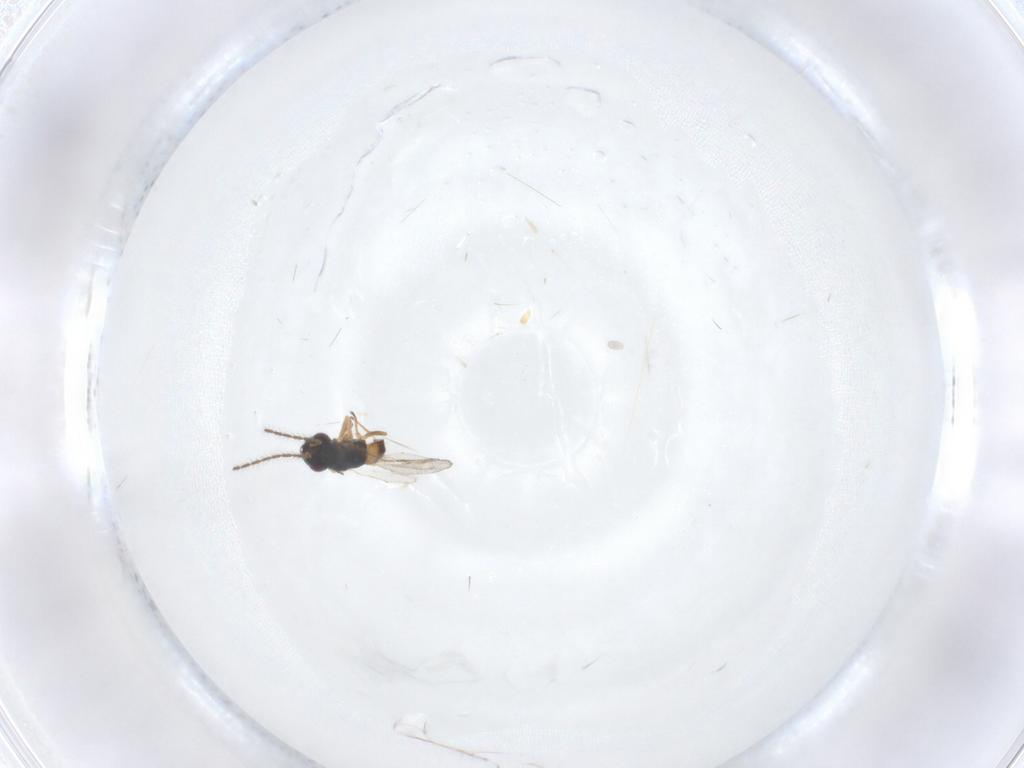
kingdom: Animalia
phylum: Arthropoda
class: Insecta
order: Hymenoptera
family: Encyrtidae
